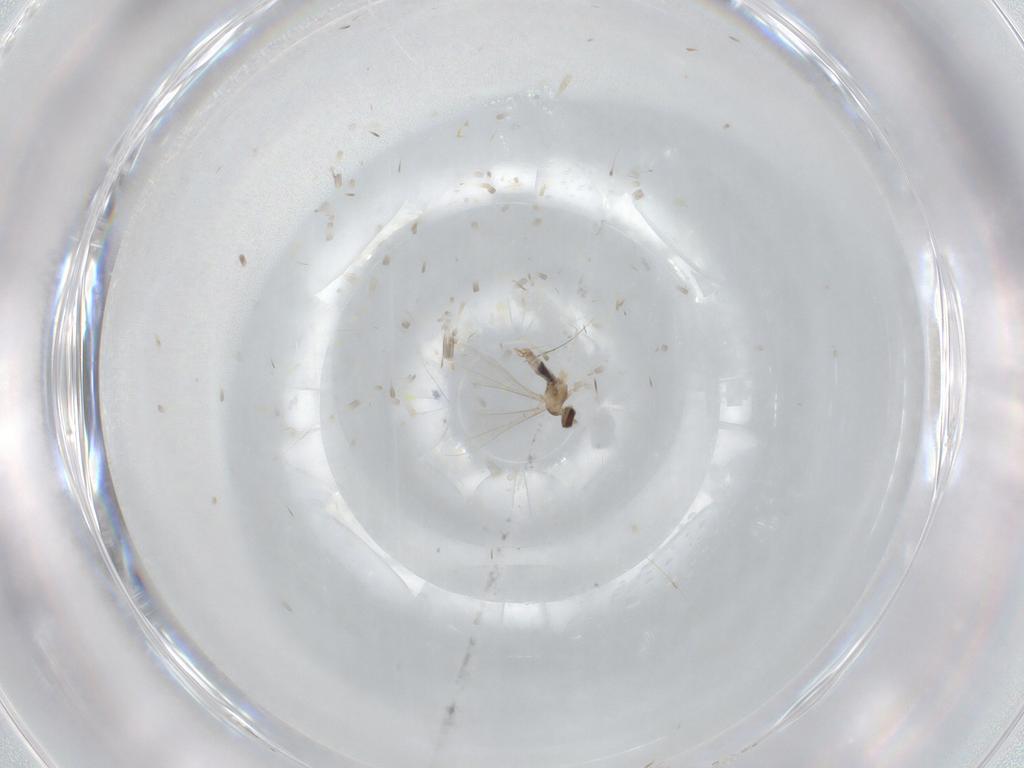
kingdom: Animalia
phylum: Arthropoda
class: Insecta
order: Diptera
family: Cecidomyiidae
